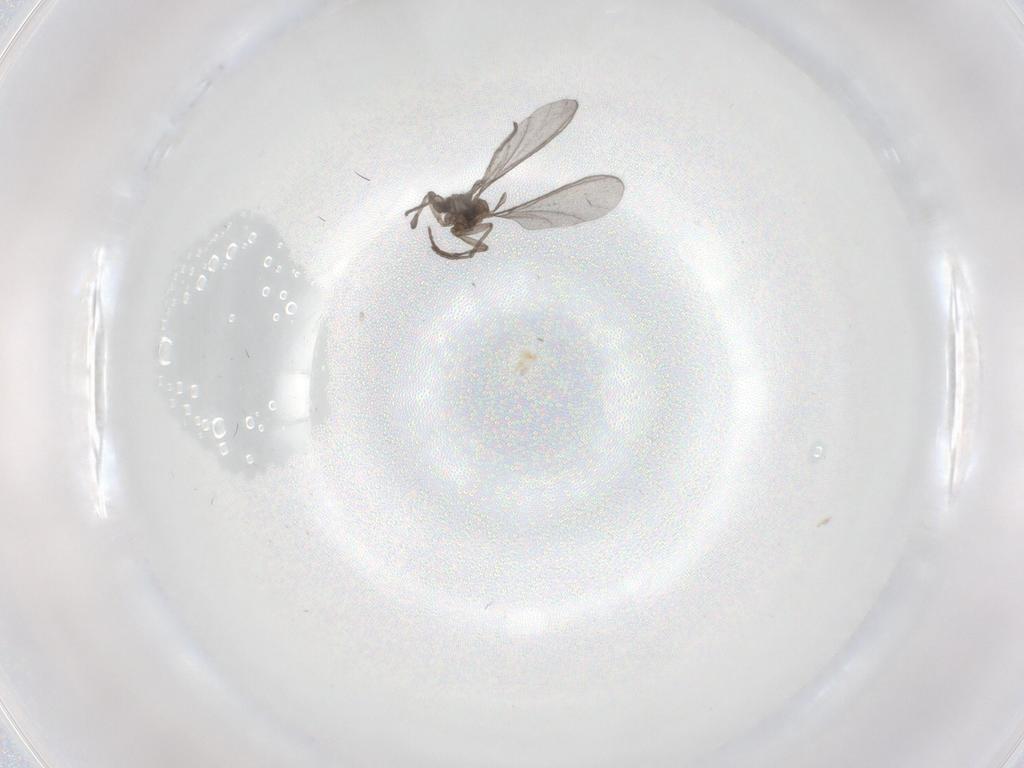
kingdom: Animalia
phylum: Arthropoda
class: Insecta
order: Diptera
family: Sciaridae
